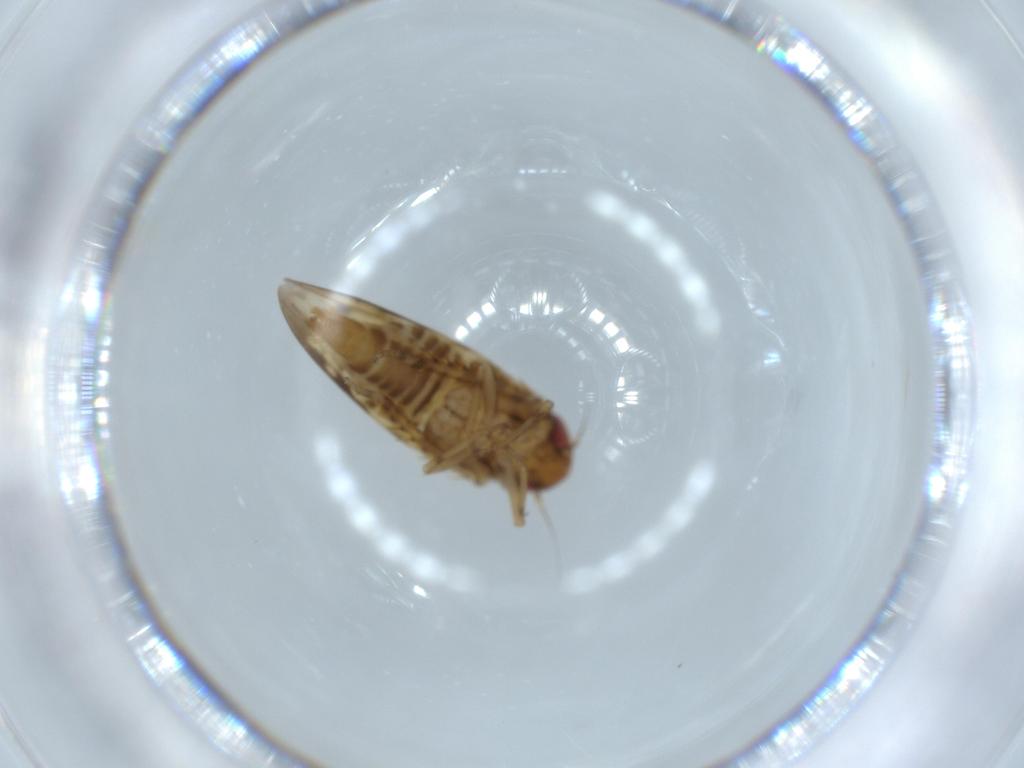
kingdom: Animalia
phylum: Arthropoda
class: Insecta
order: Hemiptera
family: Cicadellidae
